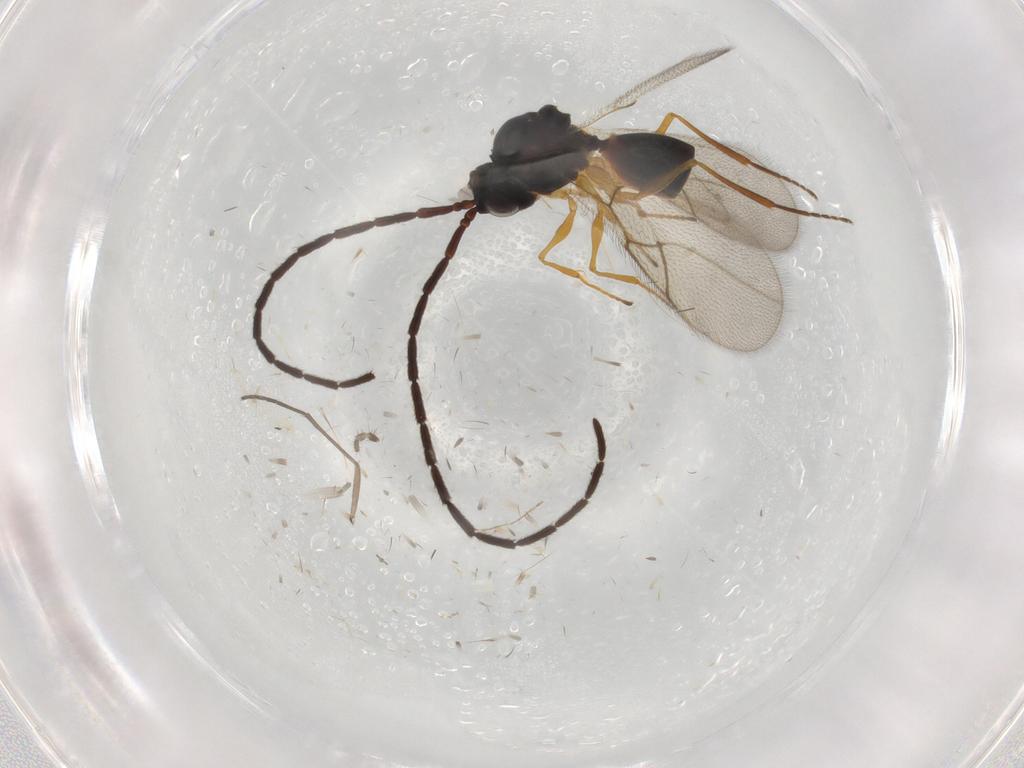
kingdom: Animalia
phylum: Arthropoda
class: Insecta
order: Hymenoptera
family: Figitidae
